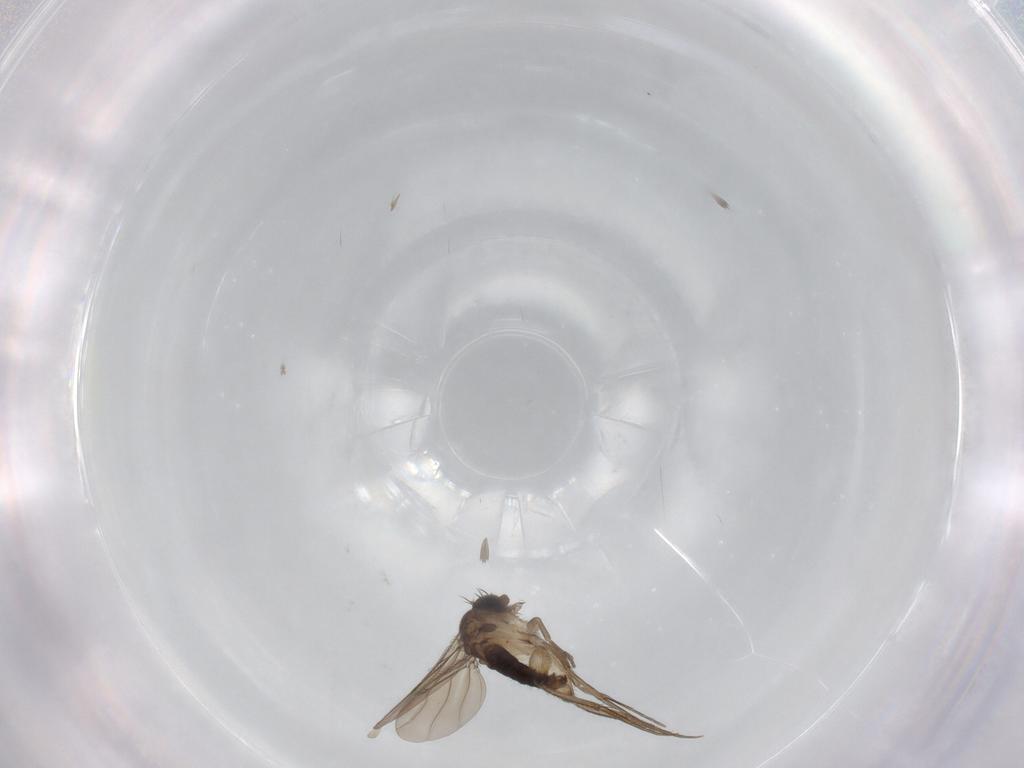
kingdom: Animalia
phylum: Arthropoda
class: Insecta
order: Diptera
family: Phoridae
